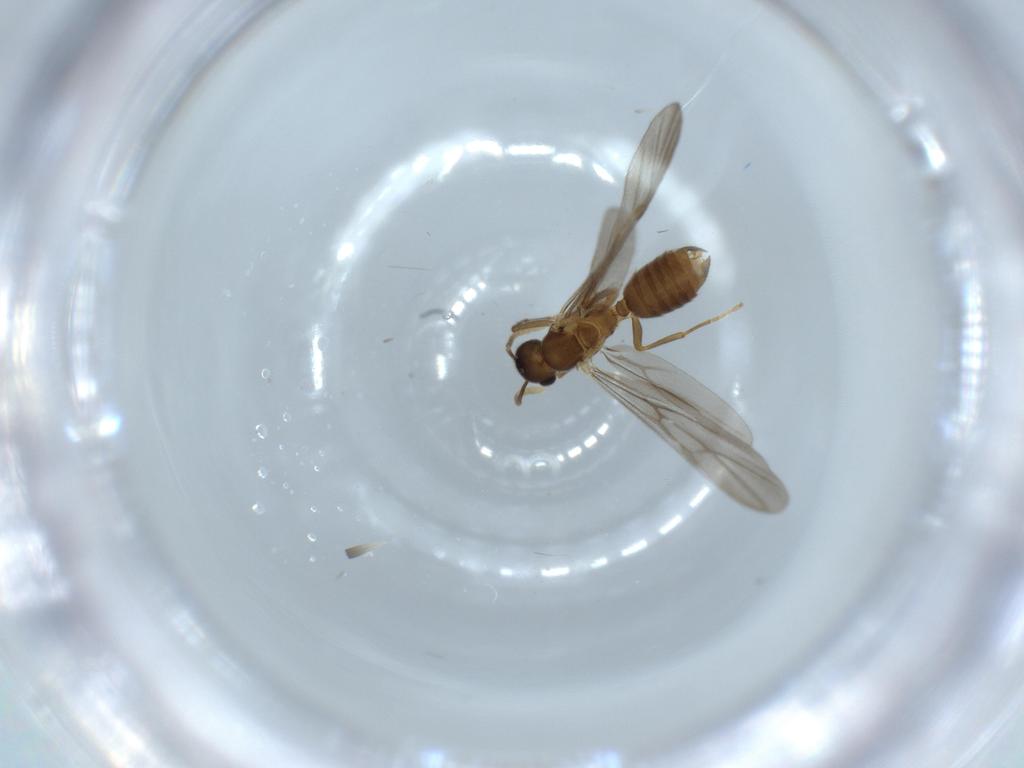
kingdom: Animalia
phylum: Arthropoda
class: Insecta
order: Hymenoptera
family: Formicidae
